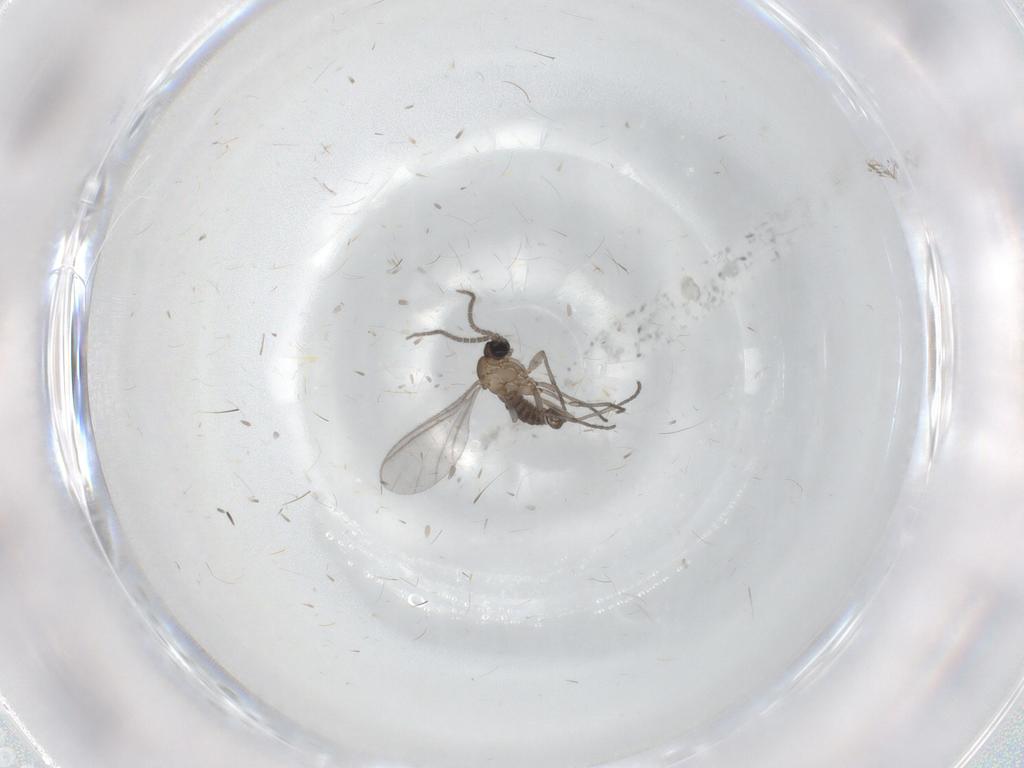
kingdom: Animalia
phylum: Arthropoda
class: Insecta
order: Diptera
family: Sciaridae
